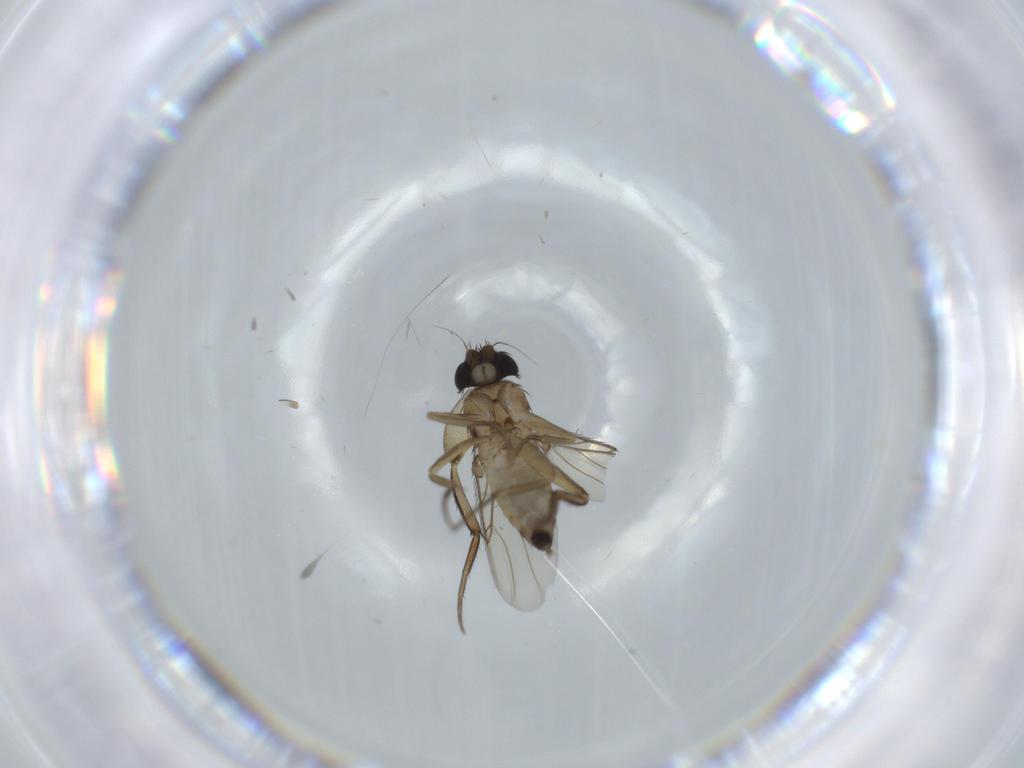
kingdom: Animalia
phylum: Arthropoda
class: Insecta
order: Diptera
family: Phoridae
